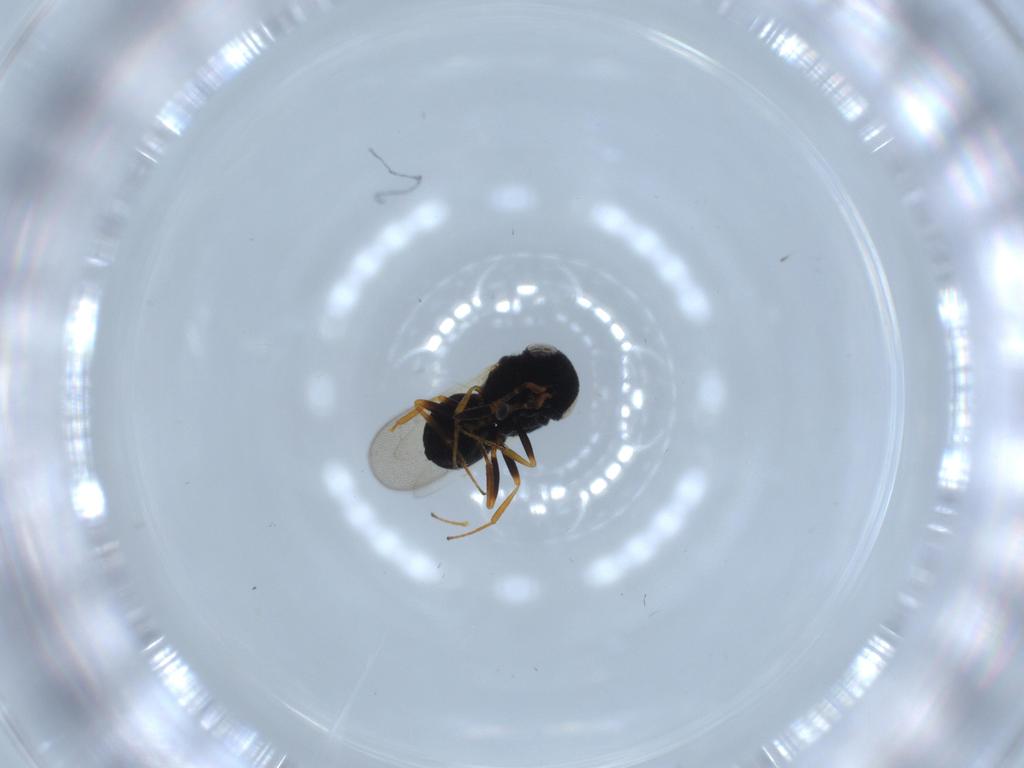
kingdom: Animalia
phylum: Arthropoda
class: Insecta
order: Hymenoptera
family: Scelionidae
